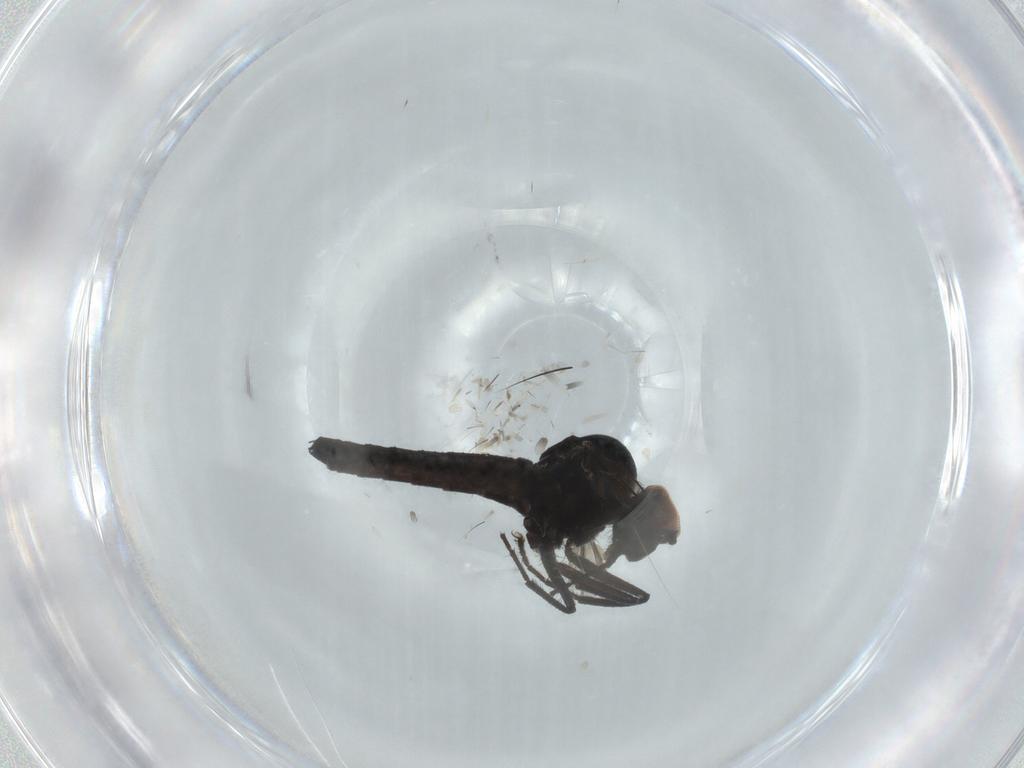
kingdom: Animalia
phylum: Arthropoda
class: Insecta
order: Diptera
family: Hybotidae
